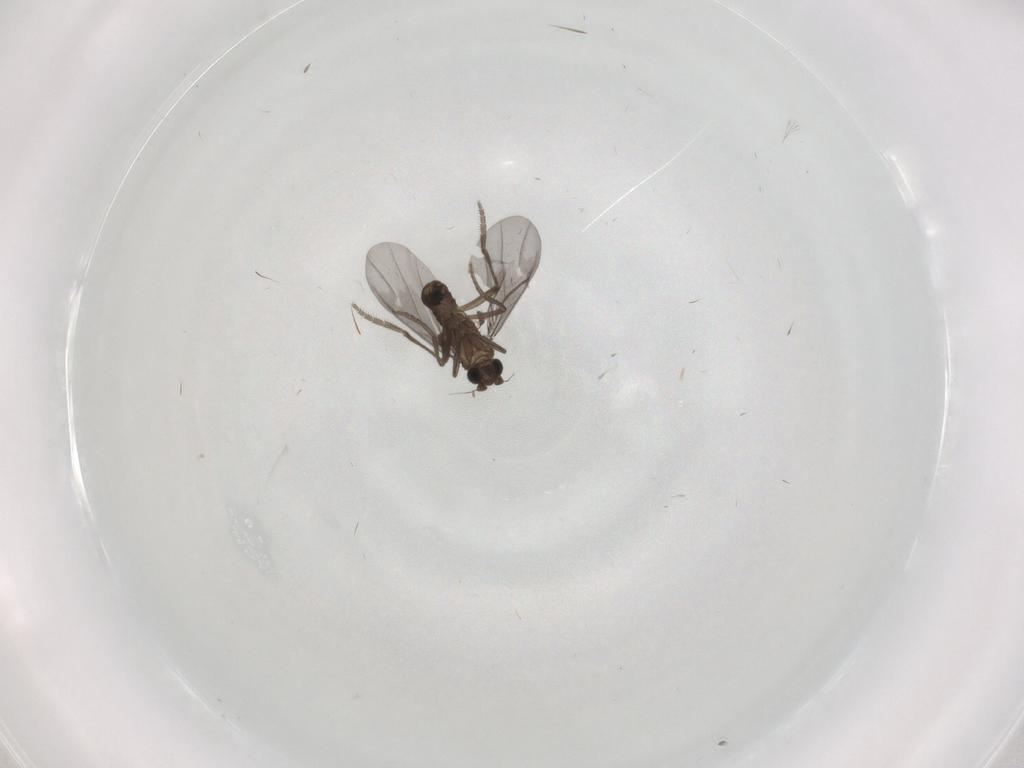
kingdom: Animalia
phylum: Arthropoda
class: Insecta
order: Diptera
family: Phoridae
